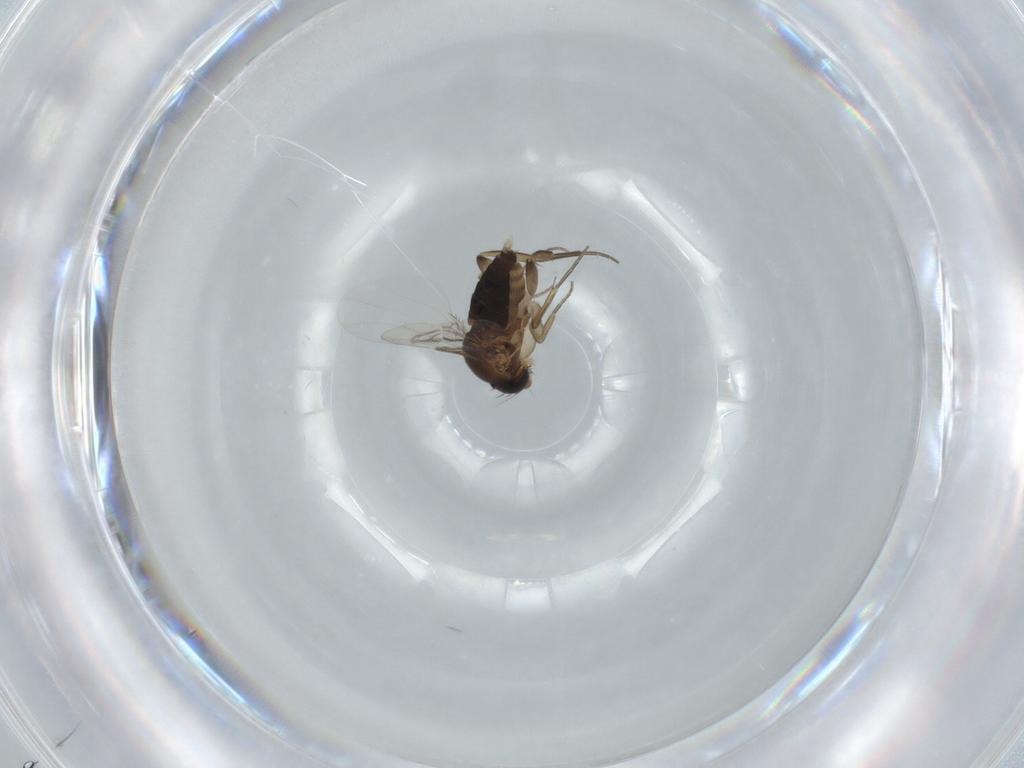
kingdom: Animalia
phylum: Arthropoda
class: Insecta
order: Diptera
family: Phoridae
